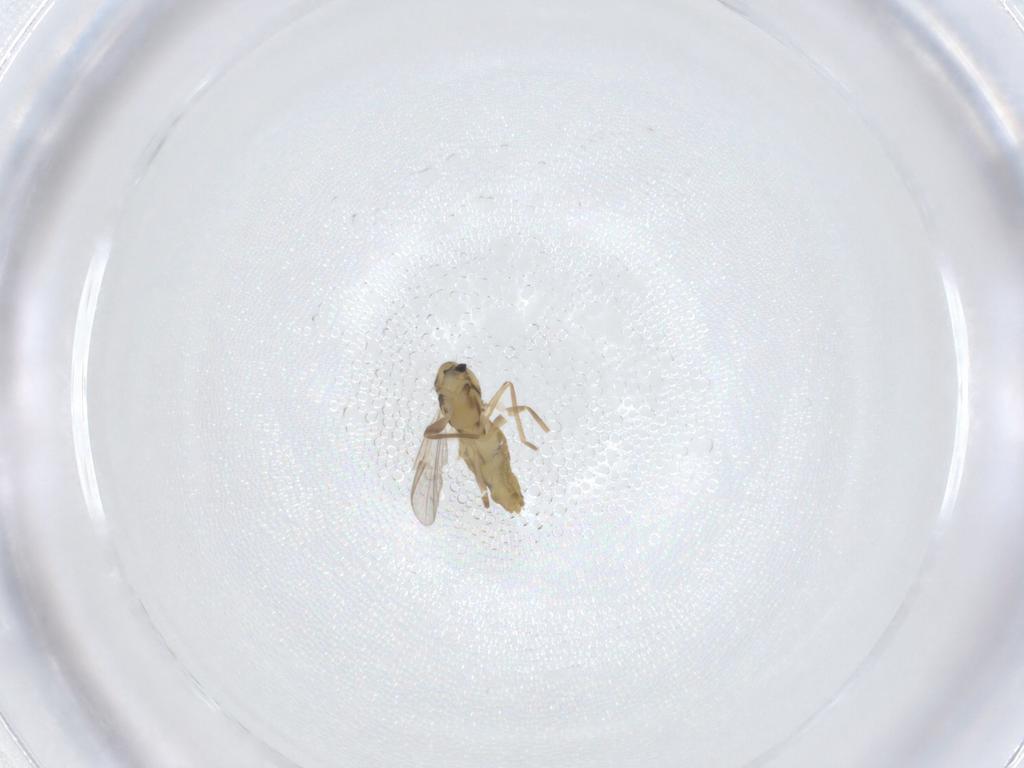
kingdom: Animalia
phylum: Arthropoda
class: Insecta
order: Diptera
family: Chironomidae
